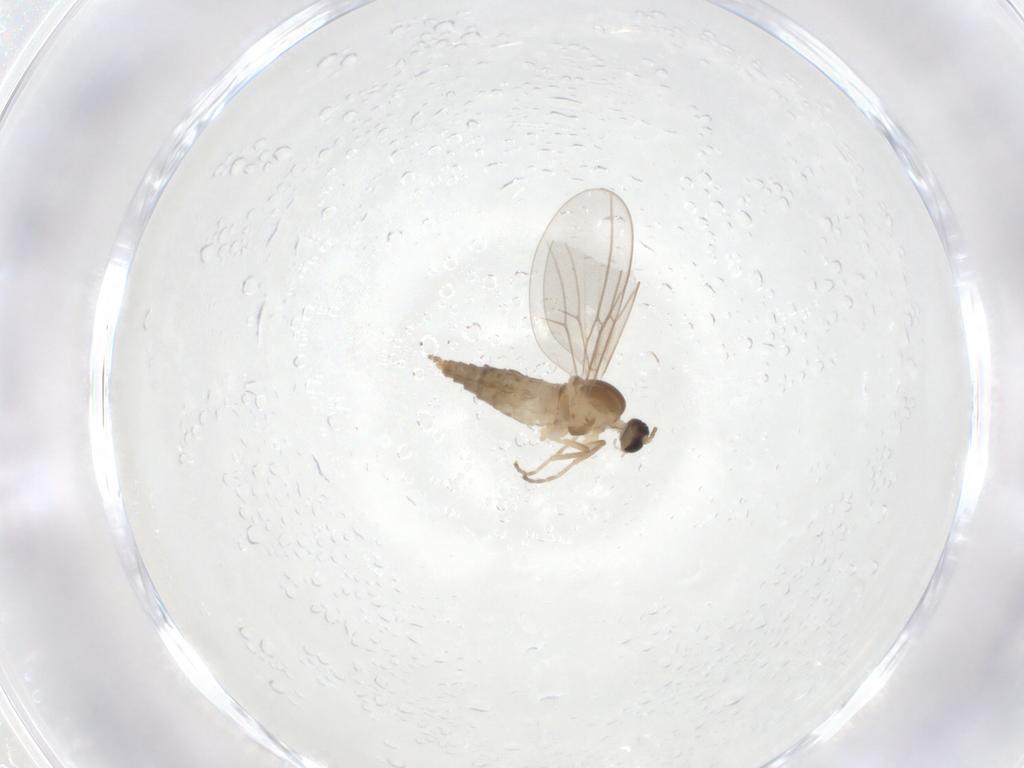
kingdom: Animalia
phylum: Arthropoda
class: Insecta
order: Diptera
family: Cecidomyiidae
